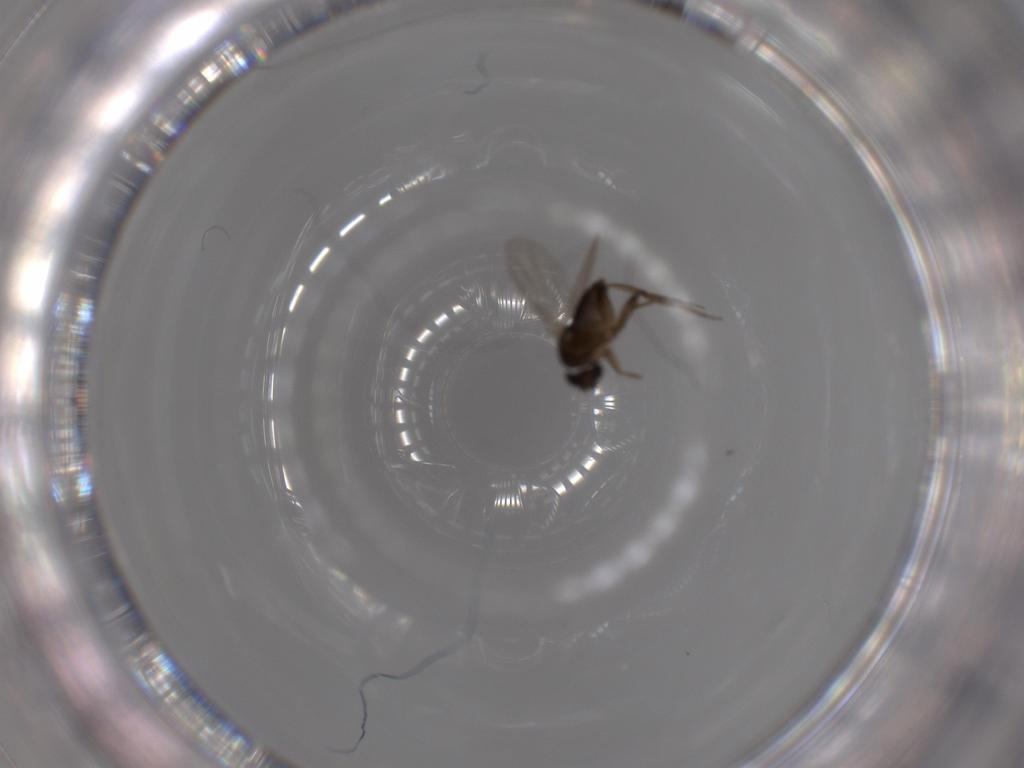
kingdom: Animalia
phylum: Arthropoda
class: Insecta
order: Diptera
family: Phoridae
